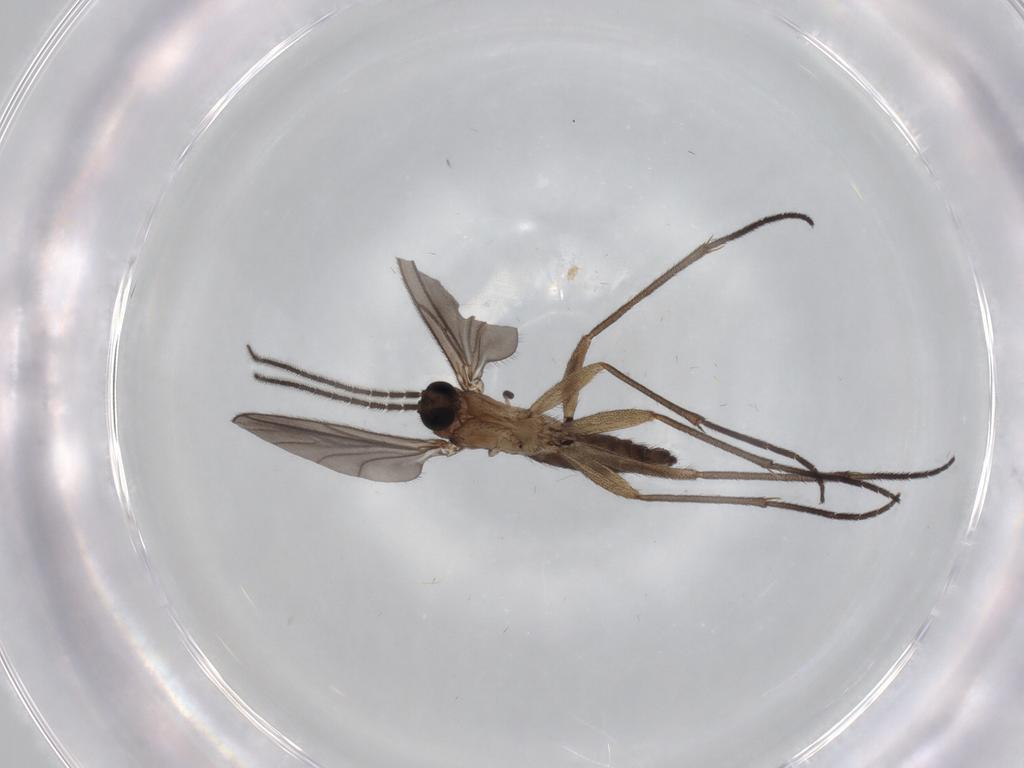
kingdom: Animalia
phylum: Arthropoda
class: Insecta
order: Diptera
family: Sciaridae
